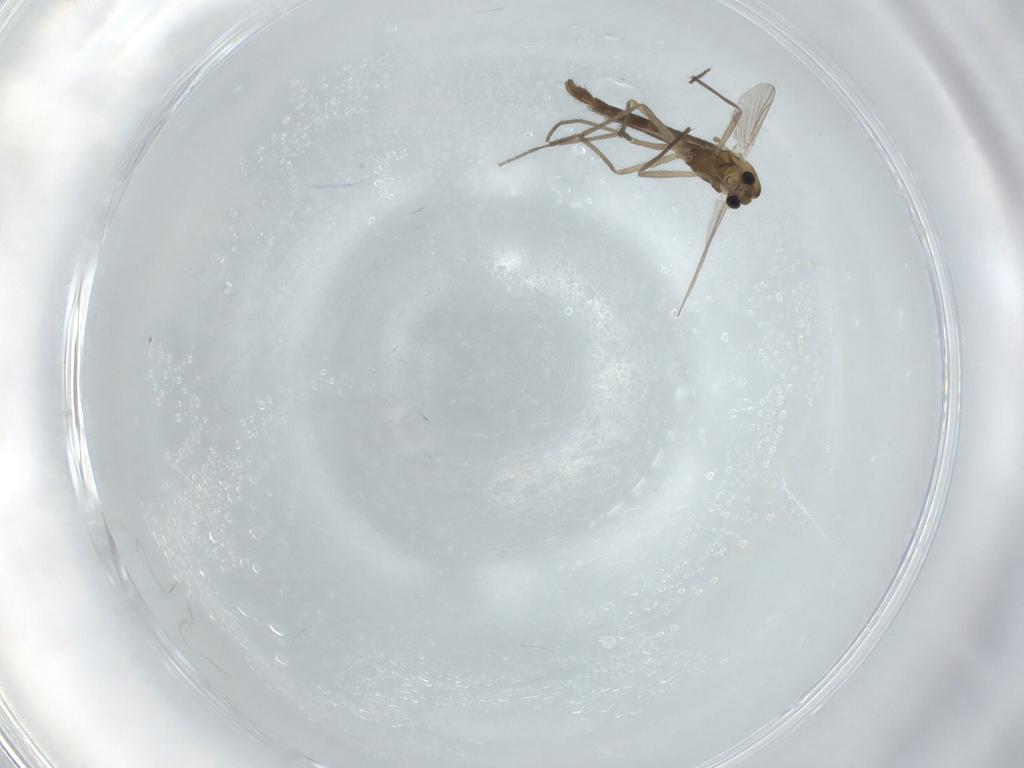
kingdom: Animalia
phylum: Arthropoda
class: Insecta
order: Diptera
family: Chironomidae
